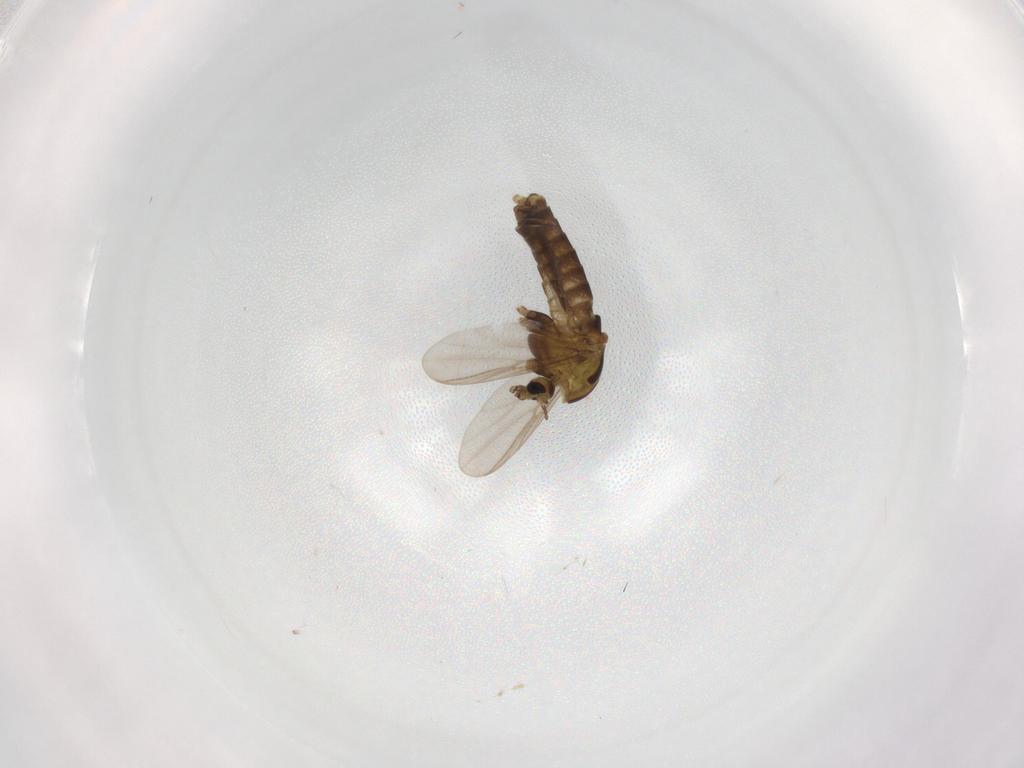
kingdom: Animalia
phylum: Arthropoda
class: Insecta
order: Diptera
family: Chironomidae
